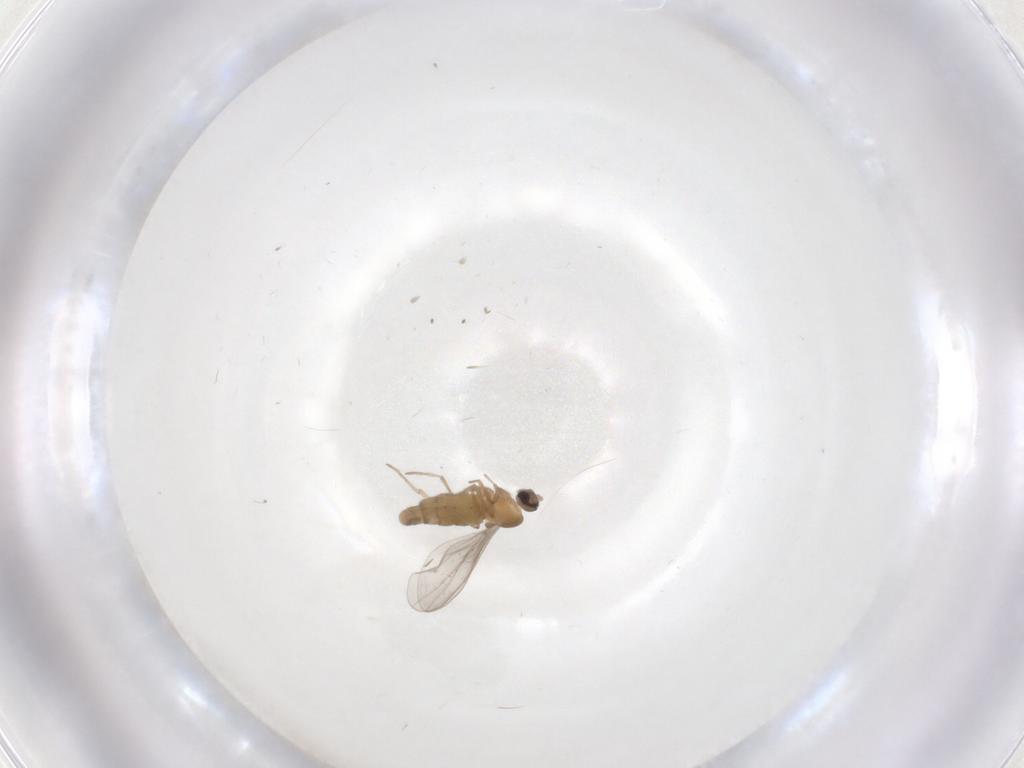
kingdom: Animalia
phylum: Arthropoda
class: Insecta
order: Diptera
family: Cecidomyiidae
